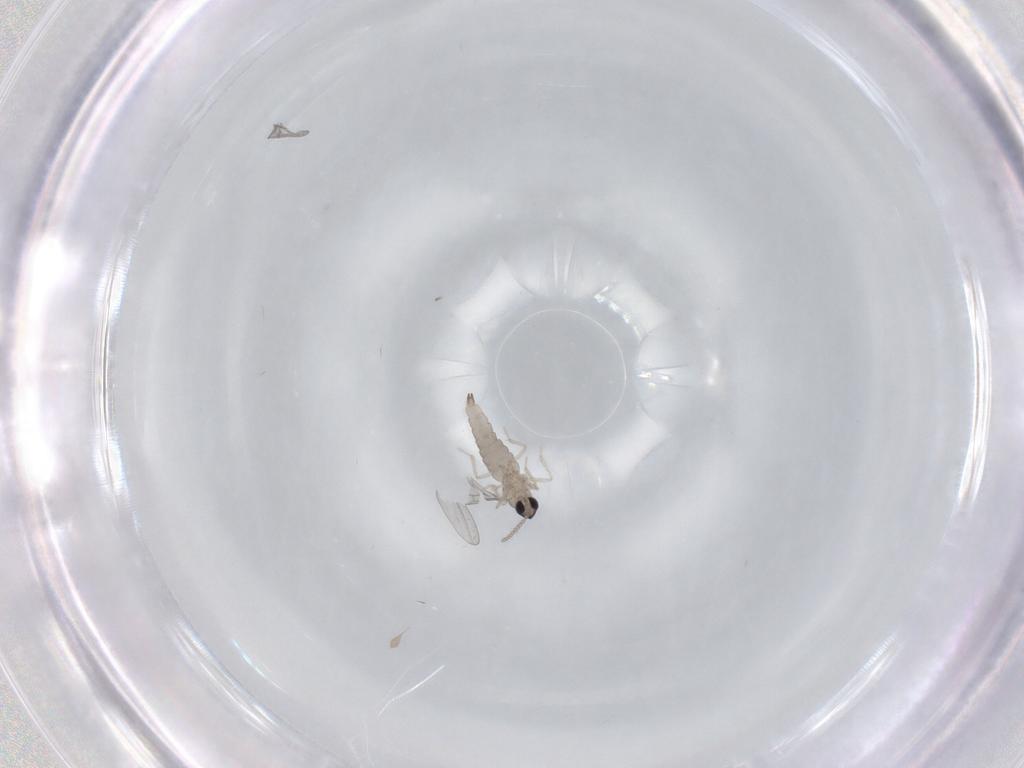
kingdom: Animalia
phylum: Arthropoda
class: Insecta
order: Diptera
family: Cecidomyiidae
